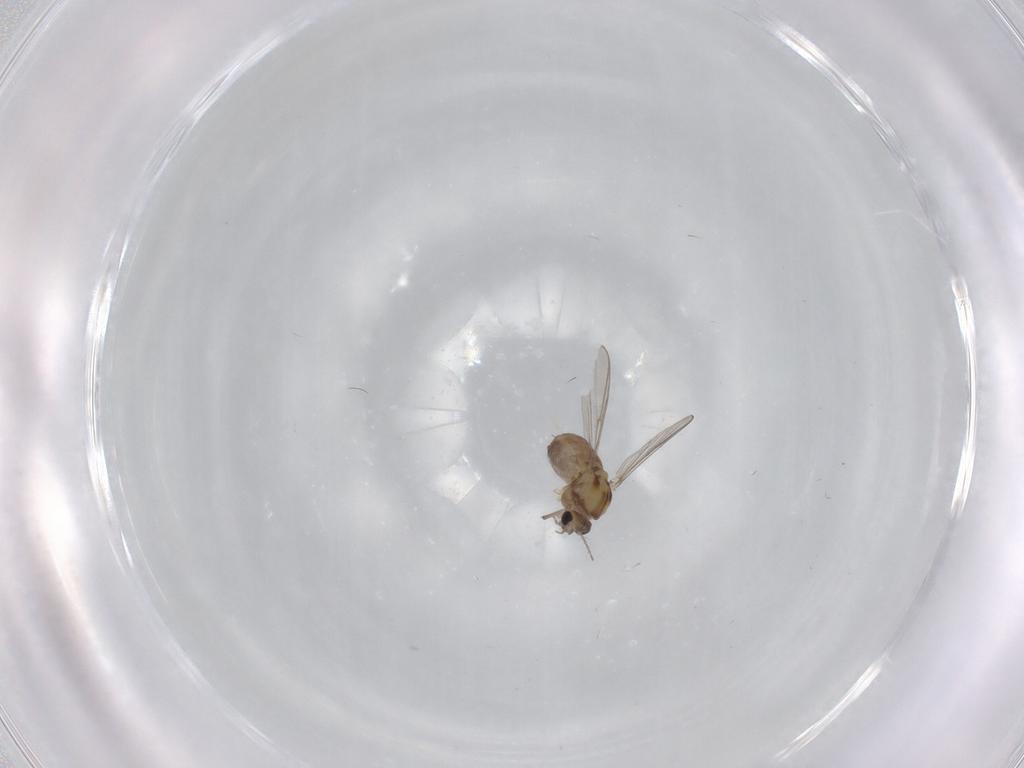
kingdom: Animalia
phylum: Arthropoda
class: Insecta
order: Diptera
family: Chironomidae
